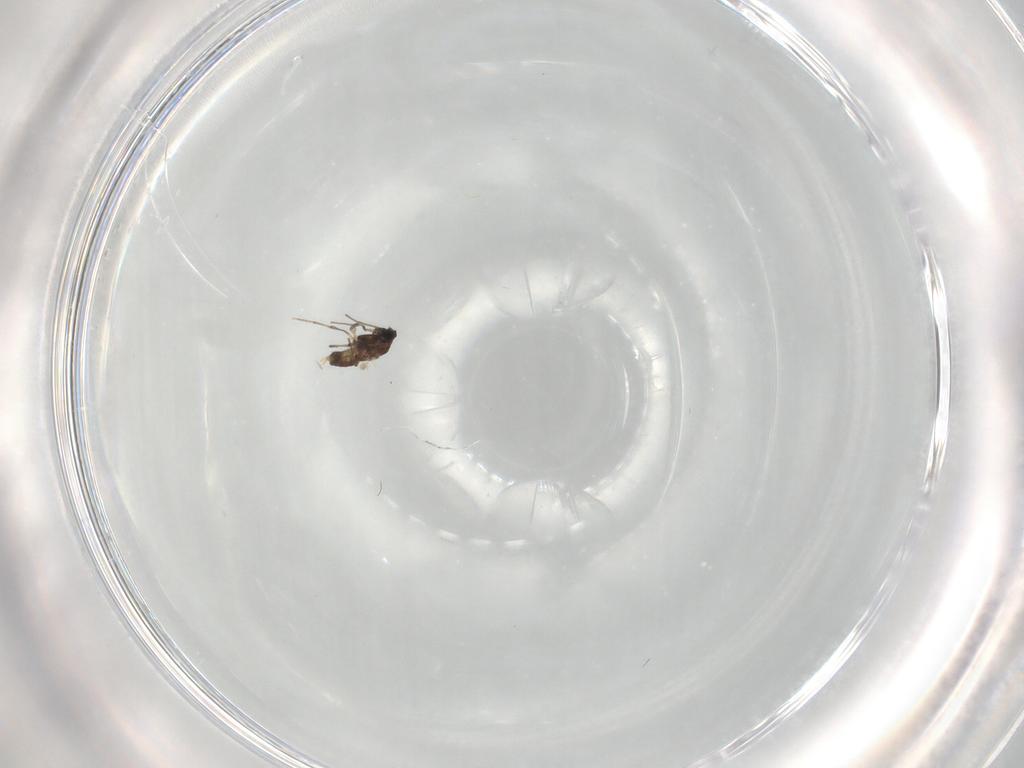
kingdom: Animalia
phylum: Arthropoda
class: Insecta
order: Diptera
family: Chironomidae
